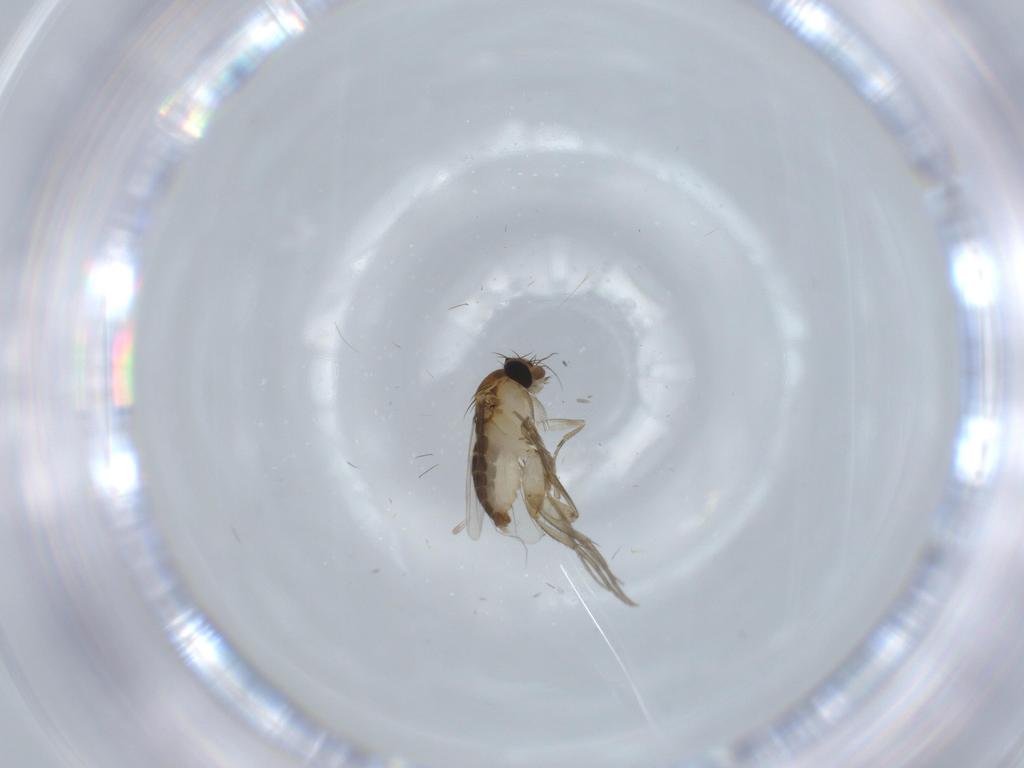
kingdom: Animalia
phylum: Arthropoda
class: Insecta
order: Diptera
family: Phoridae
